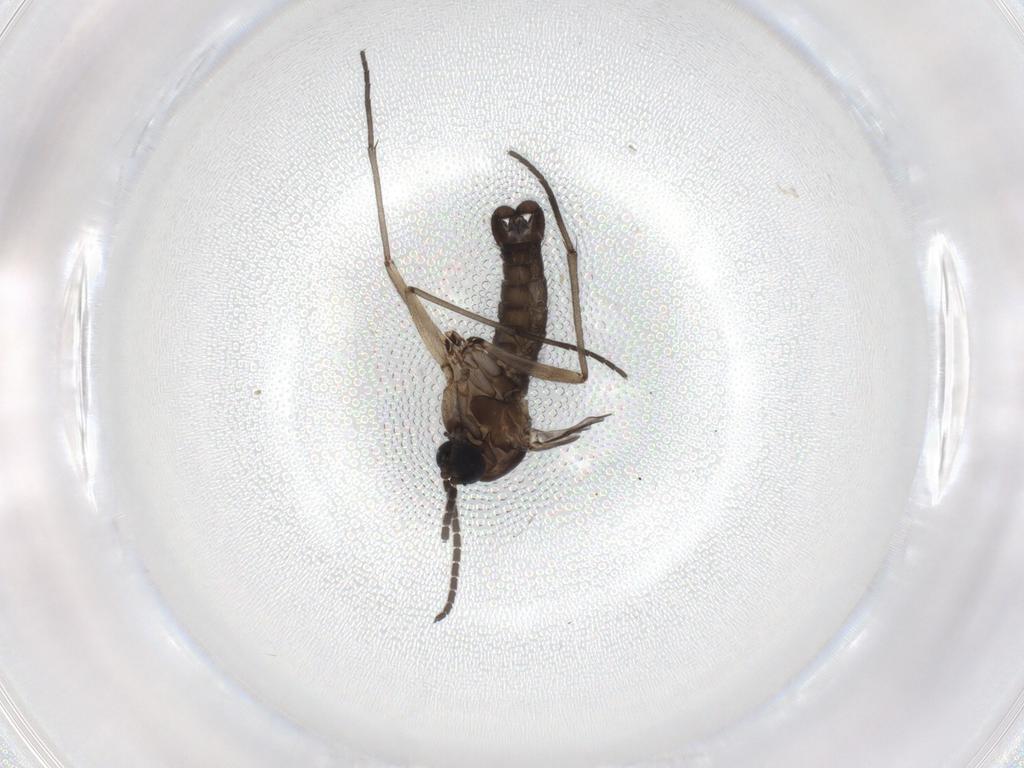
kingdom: Animalia
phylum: Arthropoda
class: Insecta
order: Diptera
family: Sciaridae
